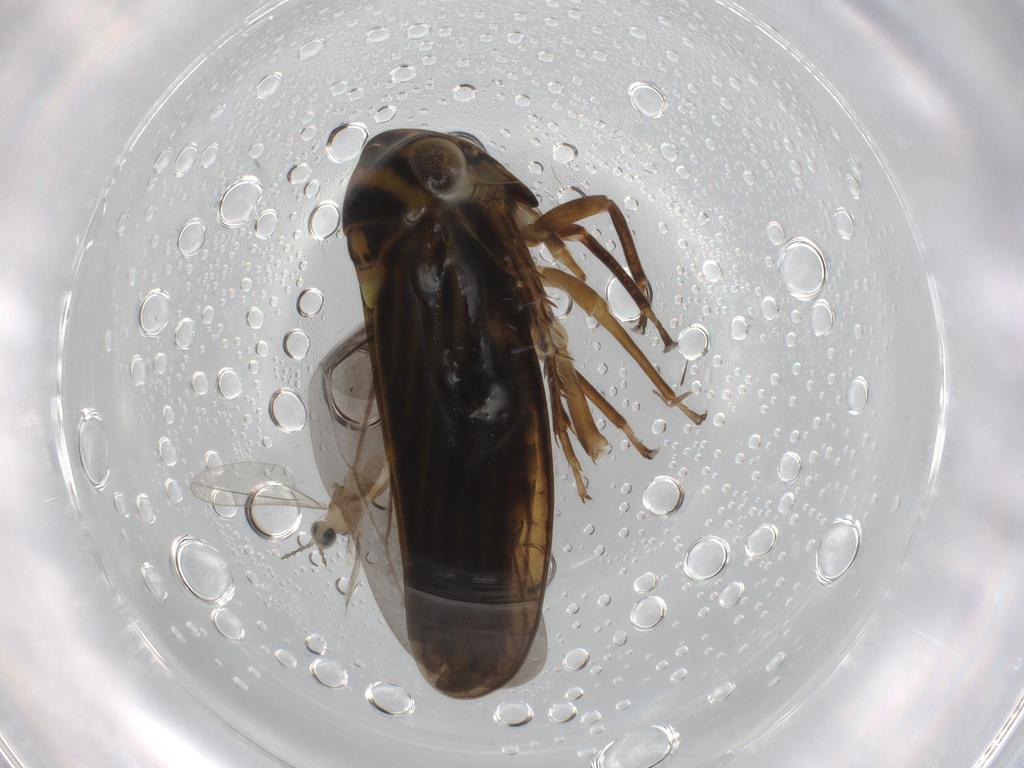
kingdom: Animalia
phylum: Arthropoda
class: Insecta
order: Diptera
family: Chironomidae
